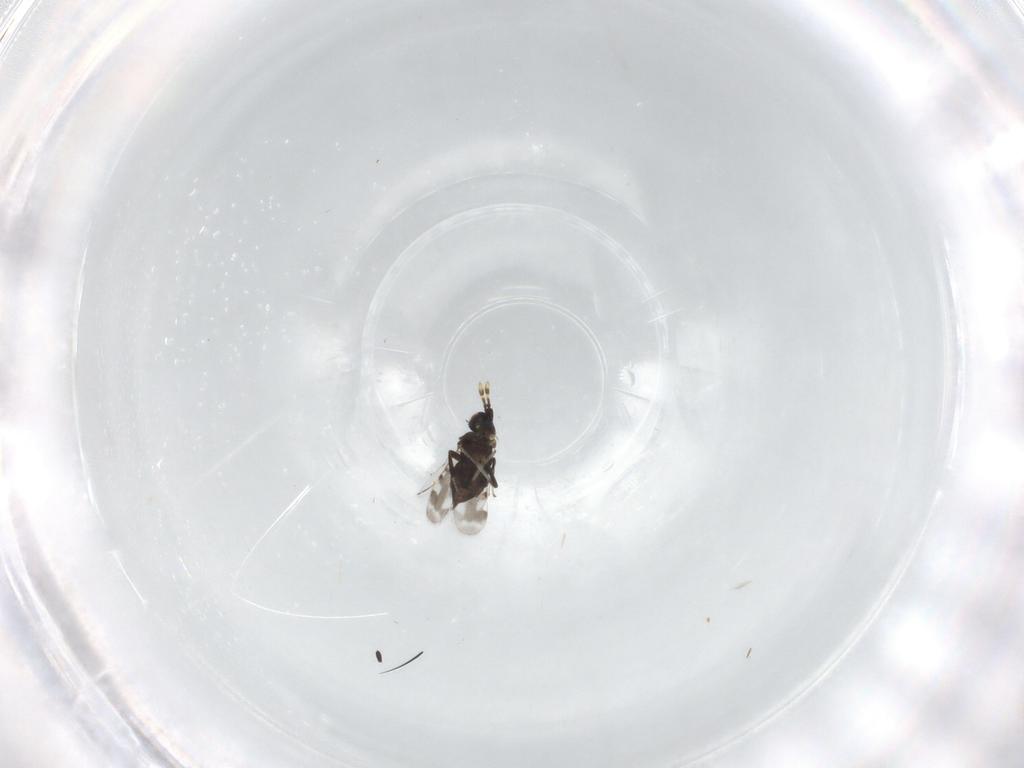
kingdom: Animalia
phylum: Arthropoda
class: Insecta
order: Hymenoptera
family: Encyrtidae
